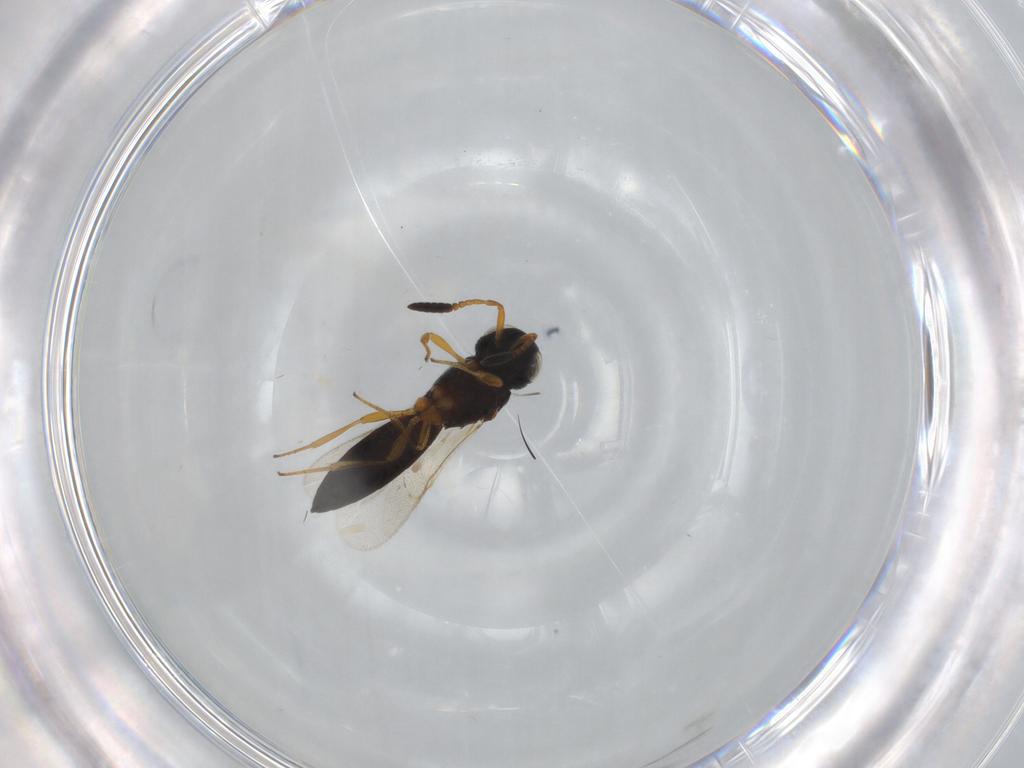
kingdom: Animalia
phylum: Arthropoda
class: Insecta
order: Hymenoptera
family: Scelionidae
